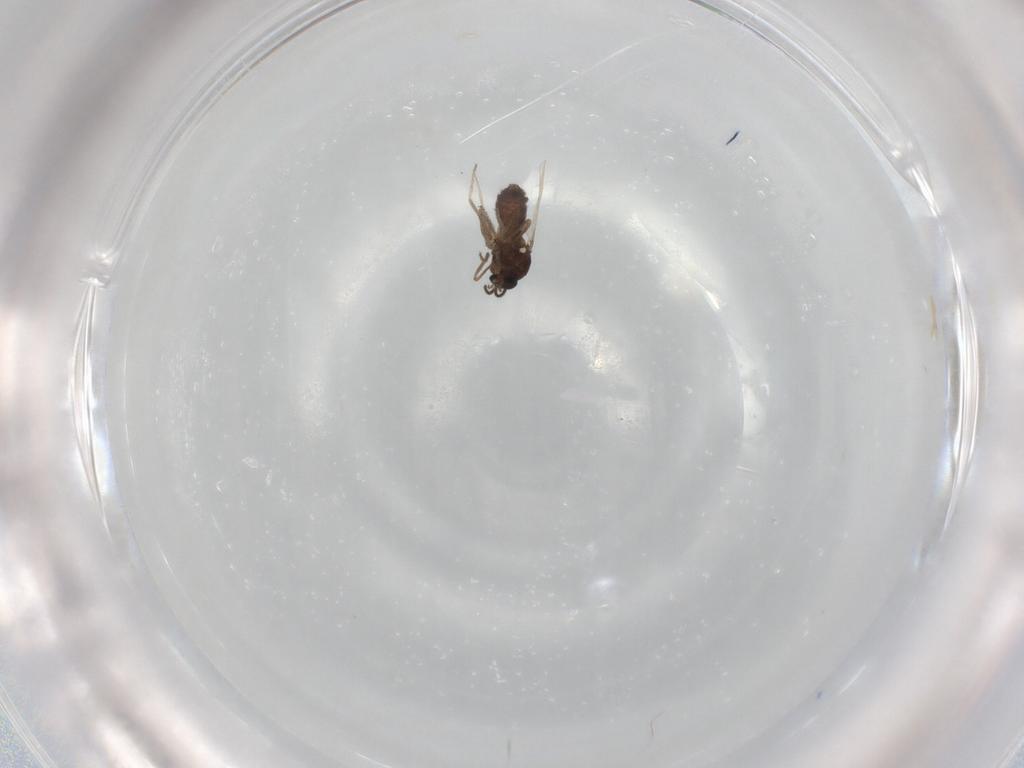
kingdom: Animalia
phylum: Arthropoda
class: Insecta
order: Diptera
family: Ceratopogonidae
